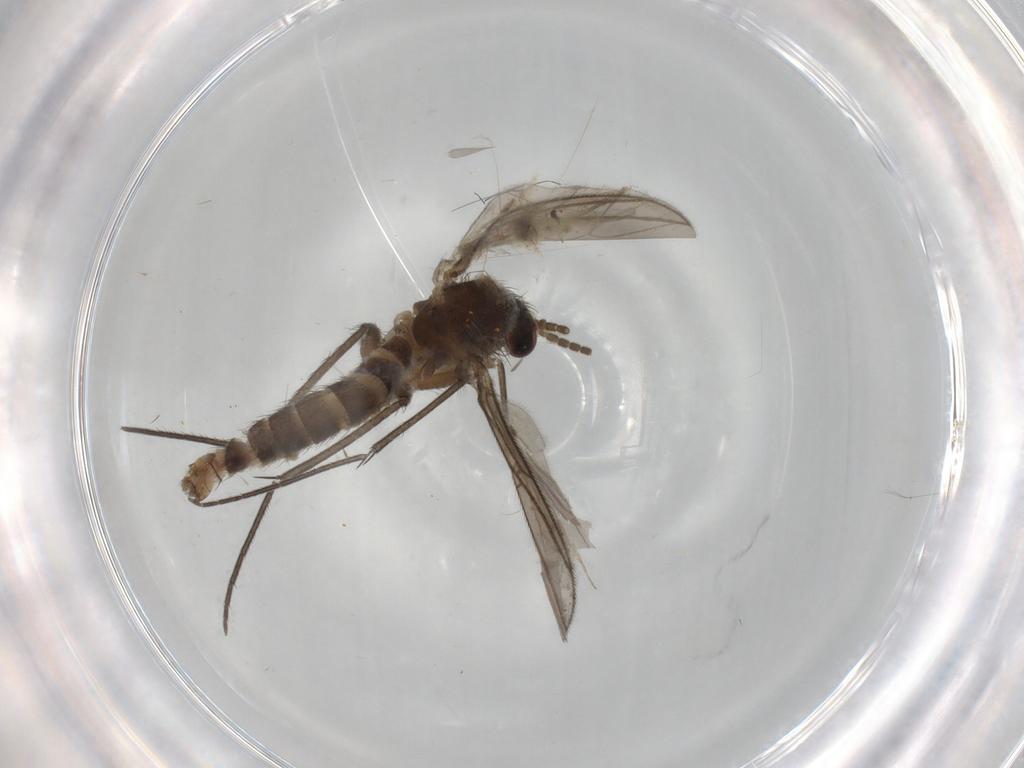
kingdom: Animalia
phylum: Arthropoda
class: Insecta
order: Diptera
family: Mycetophilidae
